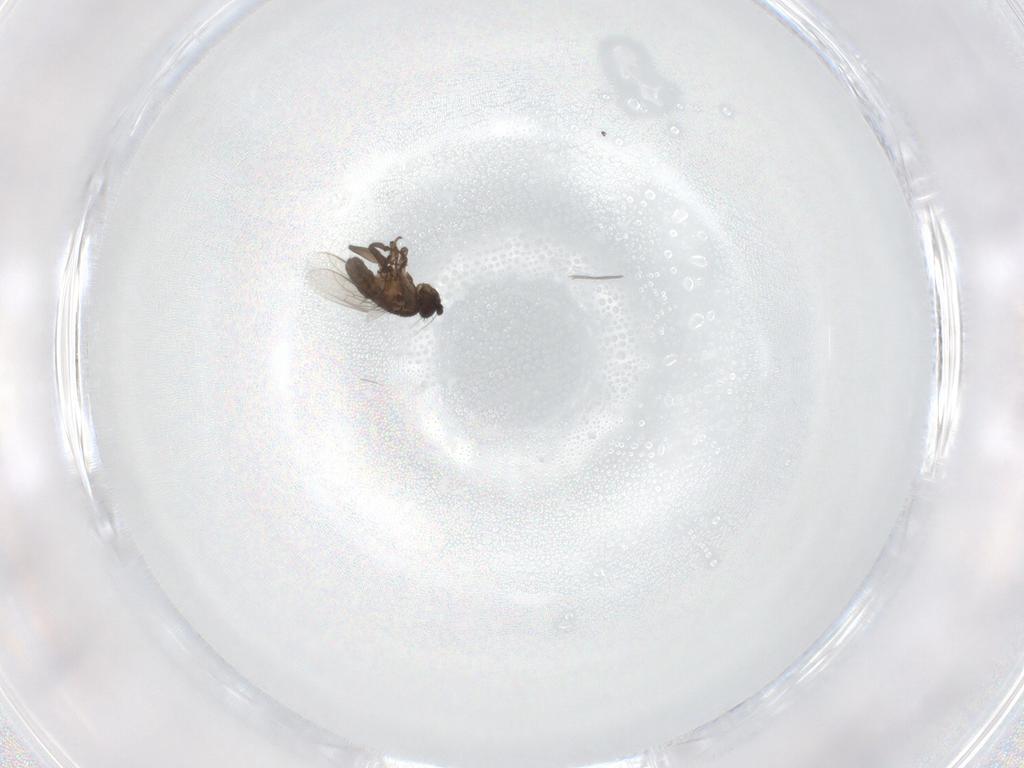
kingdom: Animalia
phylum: Arthropoda
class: Insecta
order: Diptera
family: Sphaeroceridae
